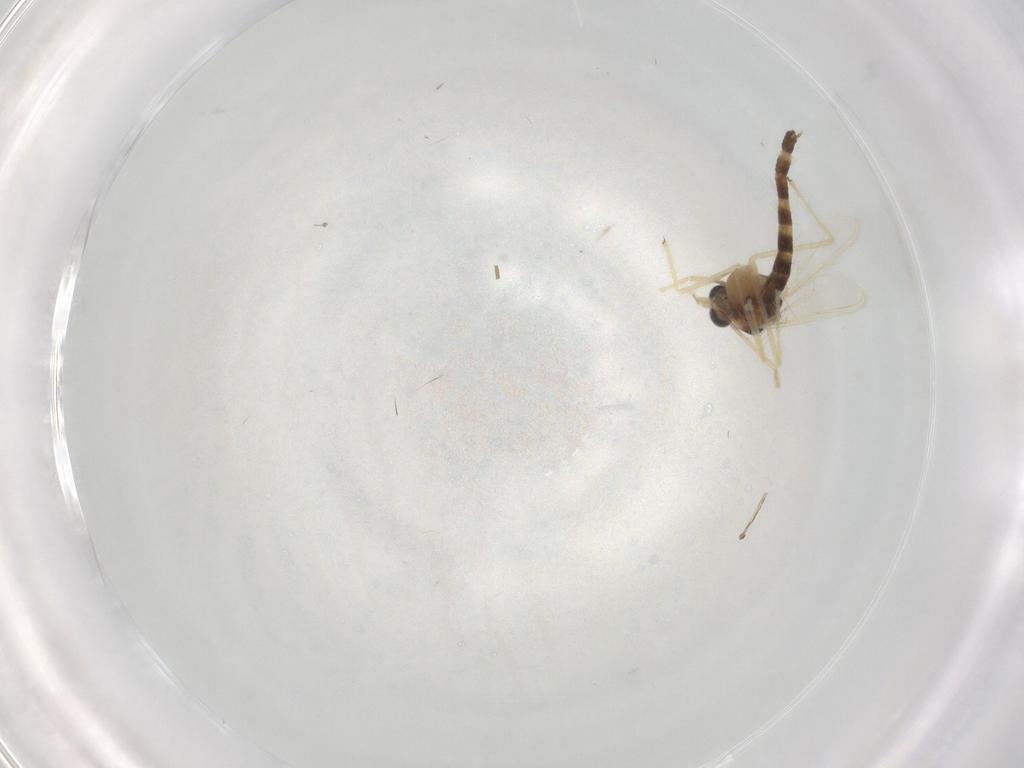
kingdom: Animalia
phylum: Arthropoda
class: Insecta
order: Diptera
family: Chironomidae
